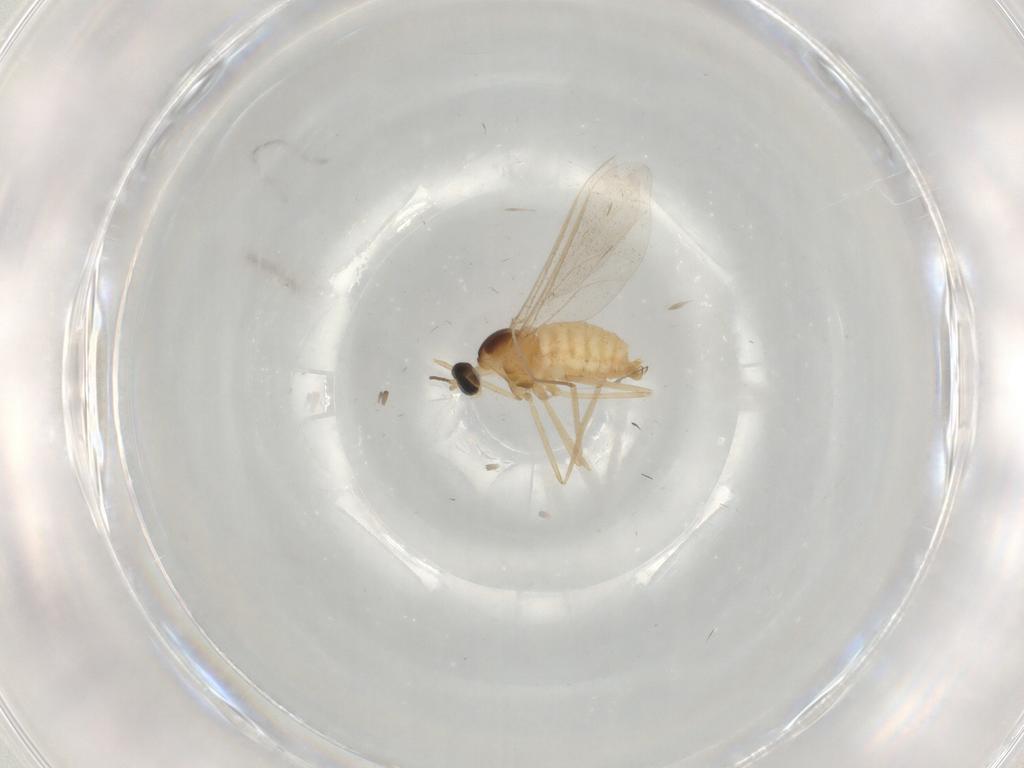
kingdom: Animalia
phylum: Arthropoda
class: Insecta
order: Diptera
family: Cecidomyiidae
